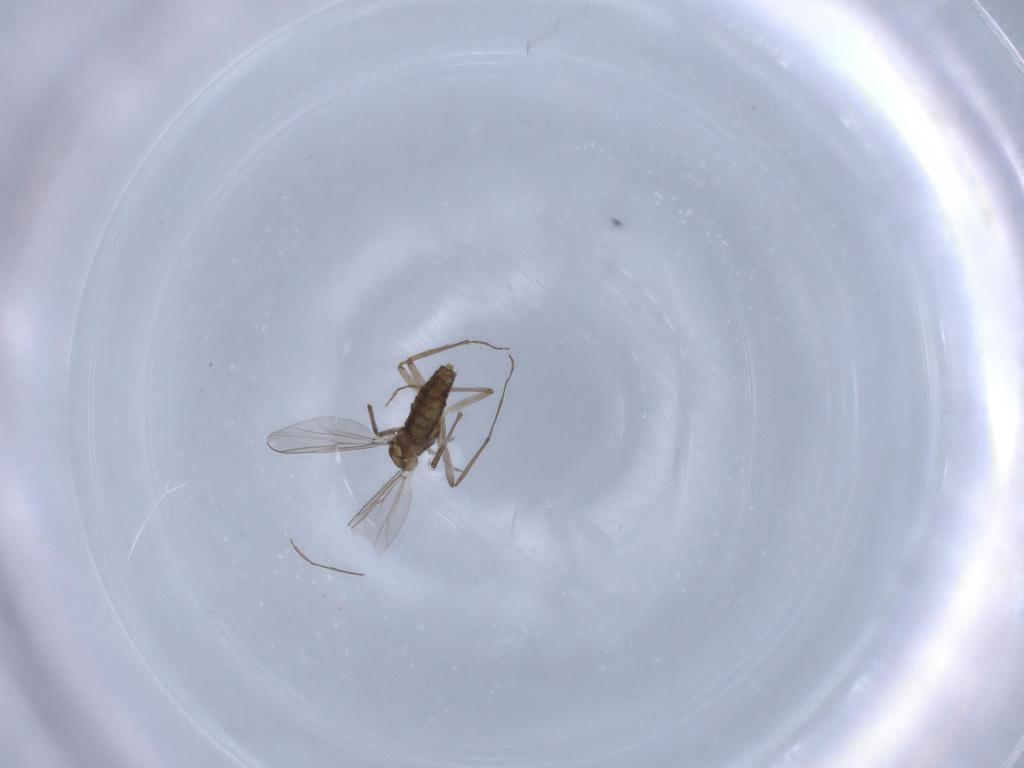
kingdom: Animalia
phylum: Arthropoda
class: Insecta
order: Diptera
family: Chironomidae
